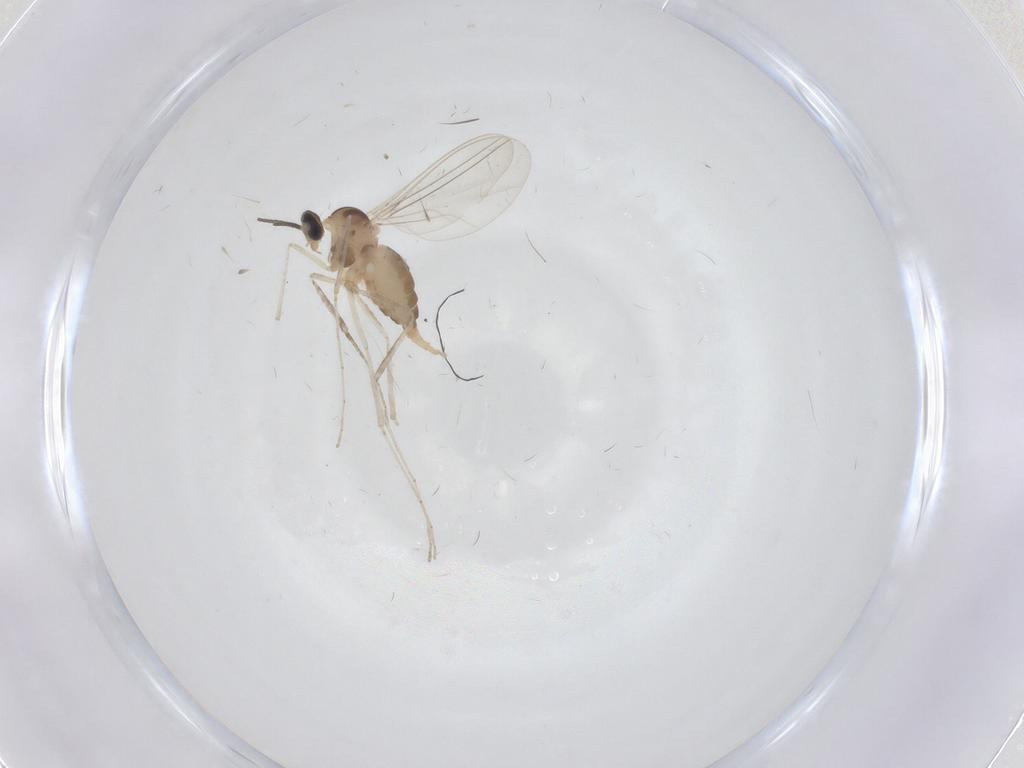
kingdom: Animalia
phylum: Arthropoda
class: Insecta
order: Diptera
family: Cecidomyiidae
